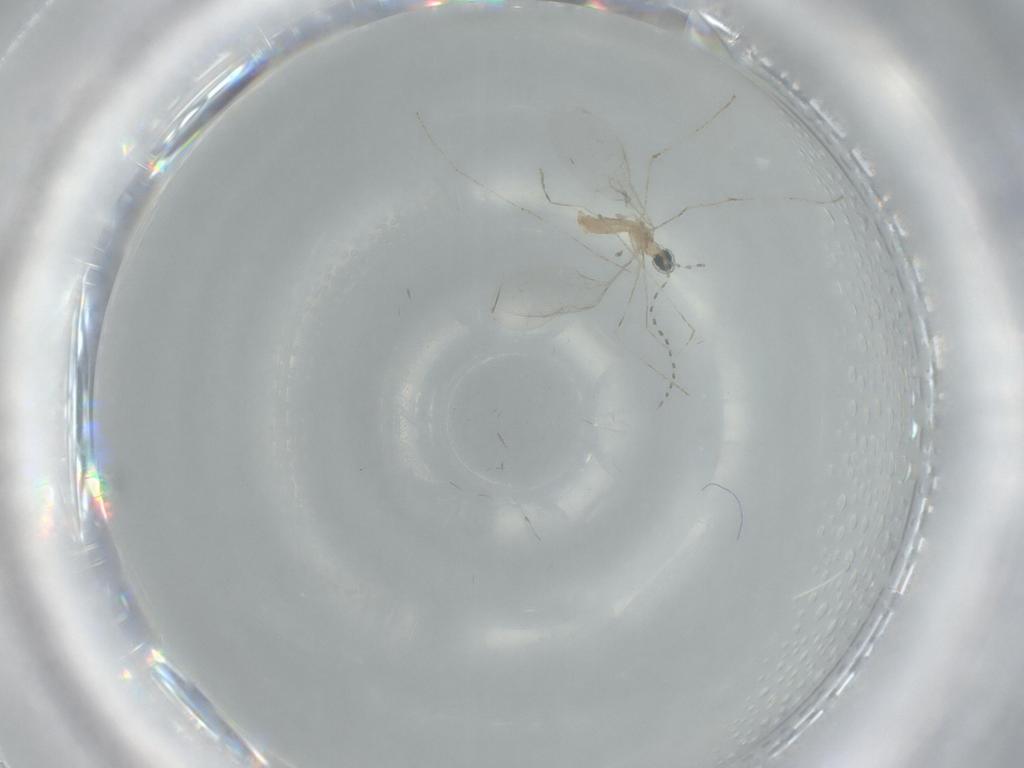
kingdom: Animalia
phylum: Arthropoda
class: Insecta
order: Diptera
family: Cecidomyiidae
